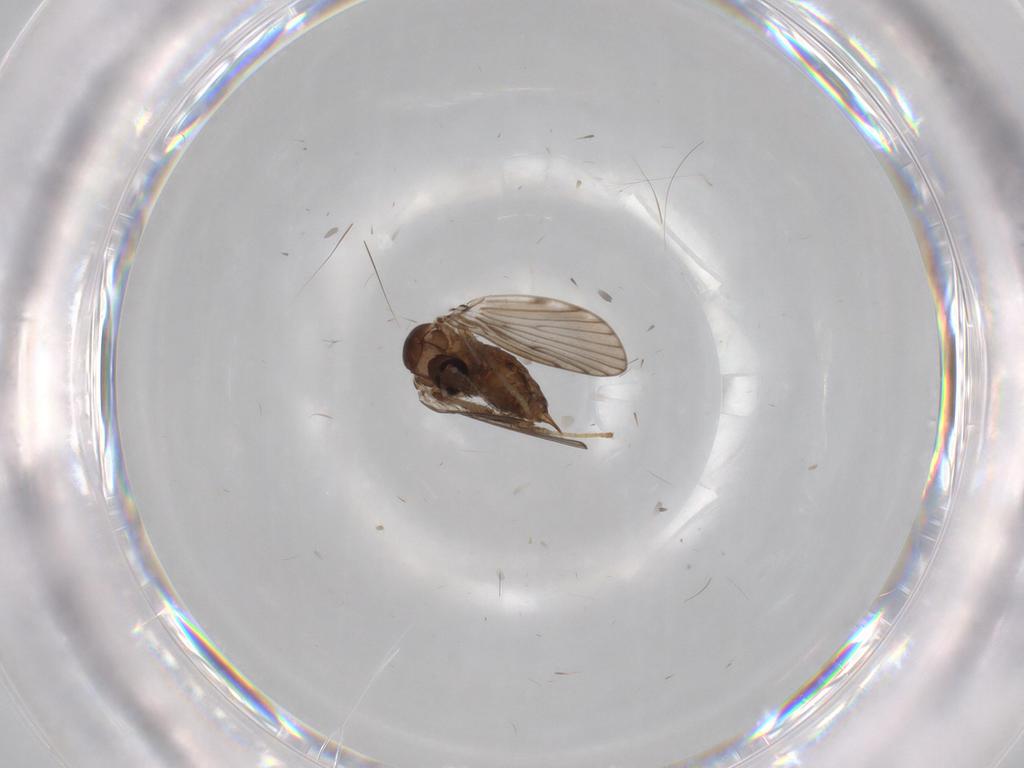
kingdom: Animalia
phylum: Arthropoda
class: Insecta
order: Diptera
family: Psychodidae
